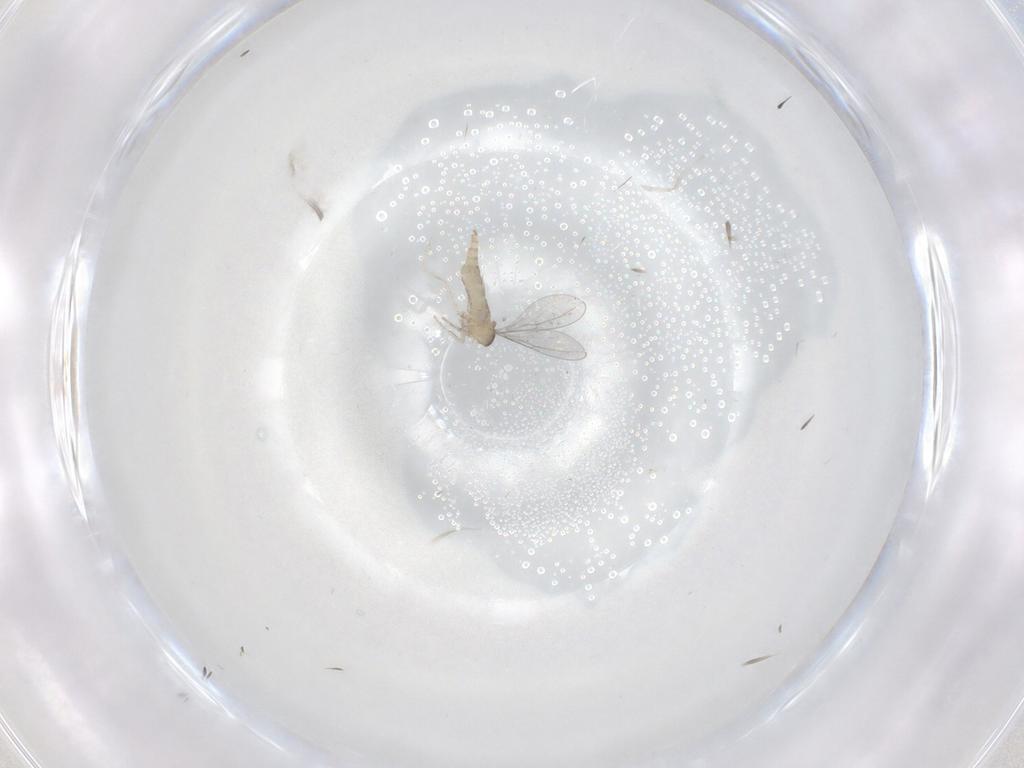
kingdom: Animalia
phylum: Arthropoda
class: Insecta
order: Diptera
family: Cecidomyiidae
